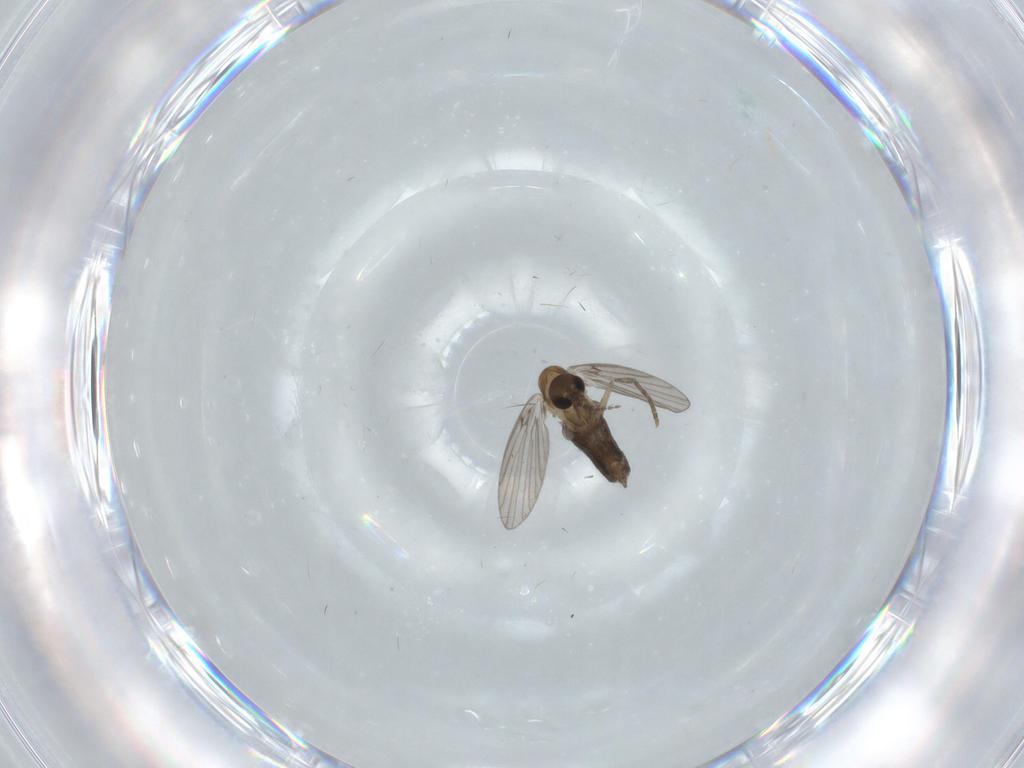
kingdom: Animalia
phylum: Arthropoda
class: Insecta
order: Diptera
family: Psychodidae
